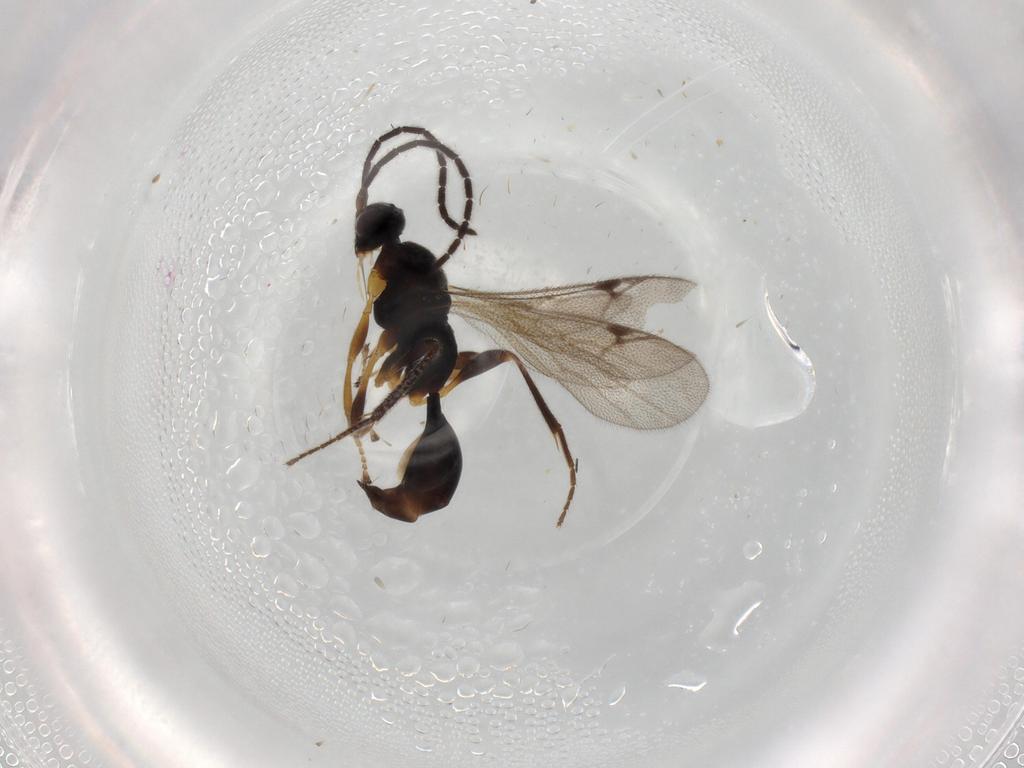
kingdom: Animalia
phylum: Arthropoda
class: Insecta
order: Hymenoptera
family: Proctotrupidae
